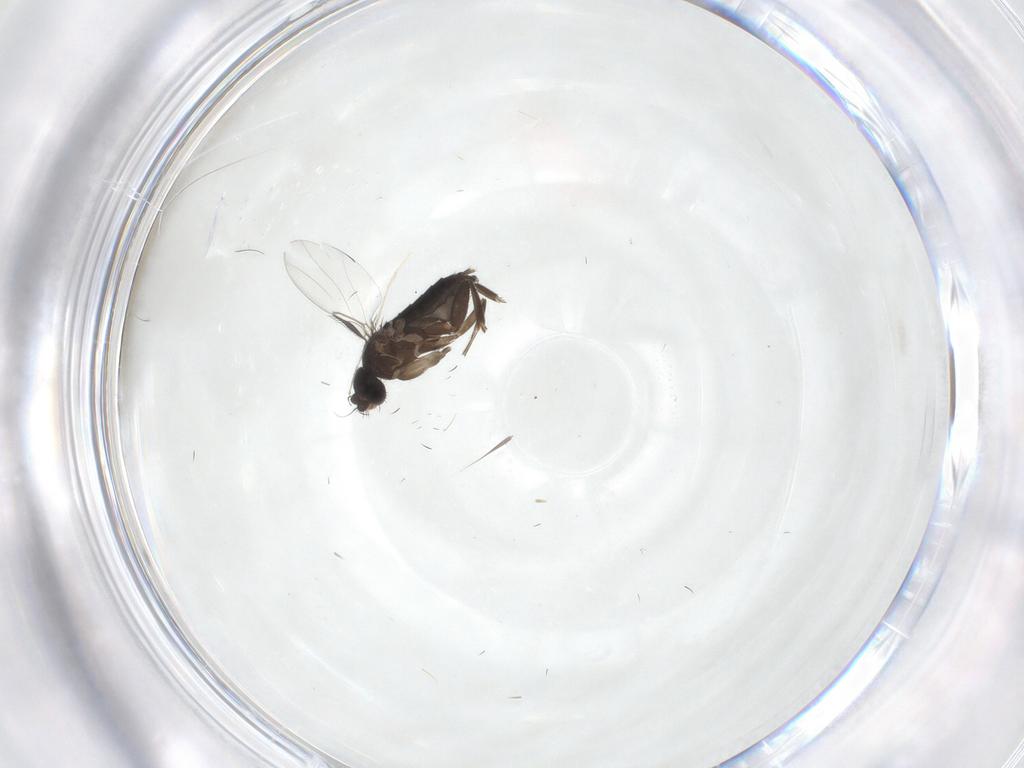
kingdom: Animalia
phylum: Arthropoda
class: Insecta
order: Diptera
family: Phoridae
